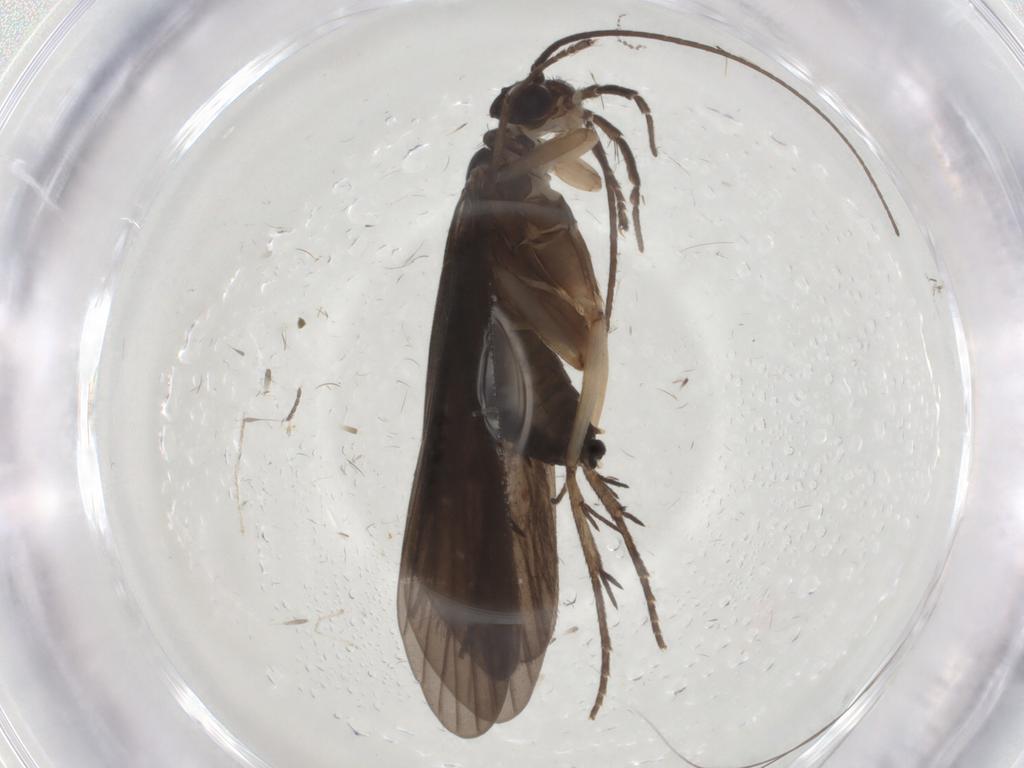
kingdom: Animalia
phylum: Arthropoda
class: Insecta
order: Trichoptera
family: Philopotamidae
